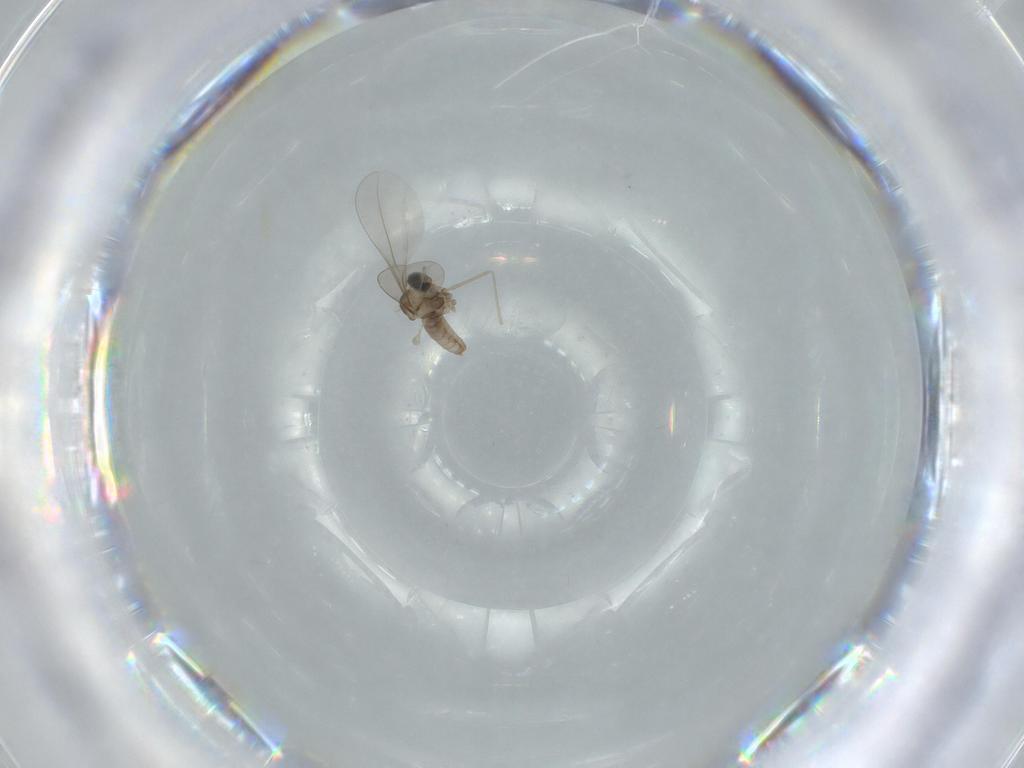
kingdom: Animalia
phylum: Arthropoda
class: Insecta
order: Diptera
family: Cecidomyiidae
